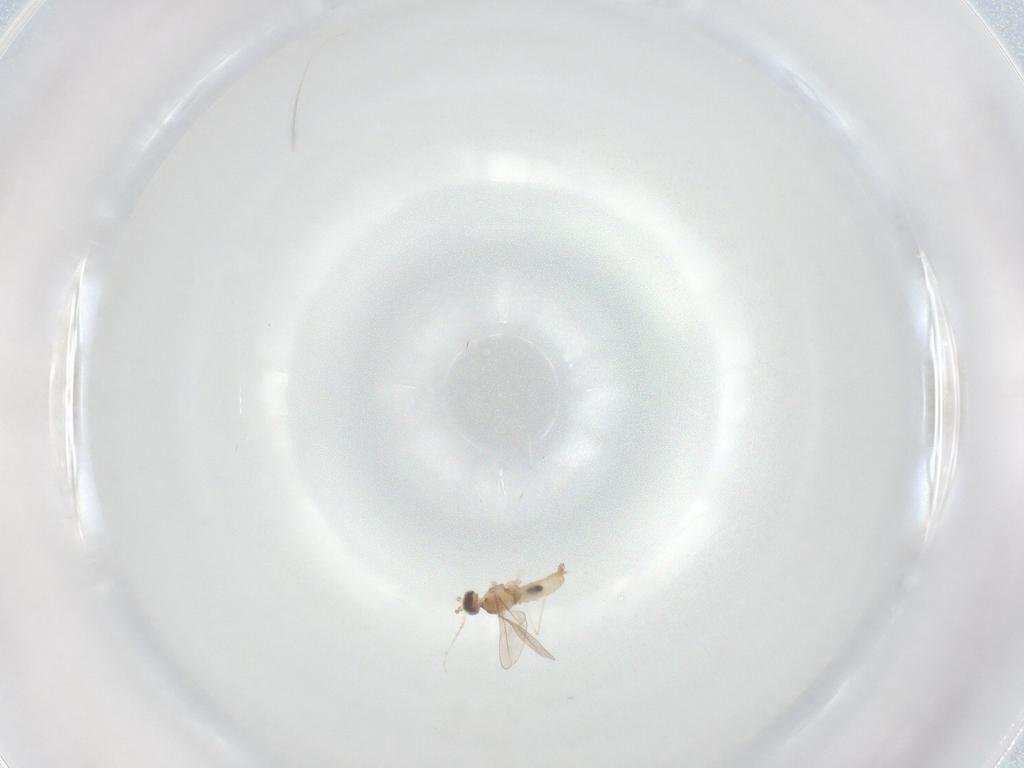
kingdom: Animalia
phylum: Arthropoda
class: Insecta
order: Diptera
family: Cecidomyiidae
